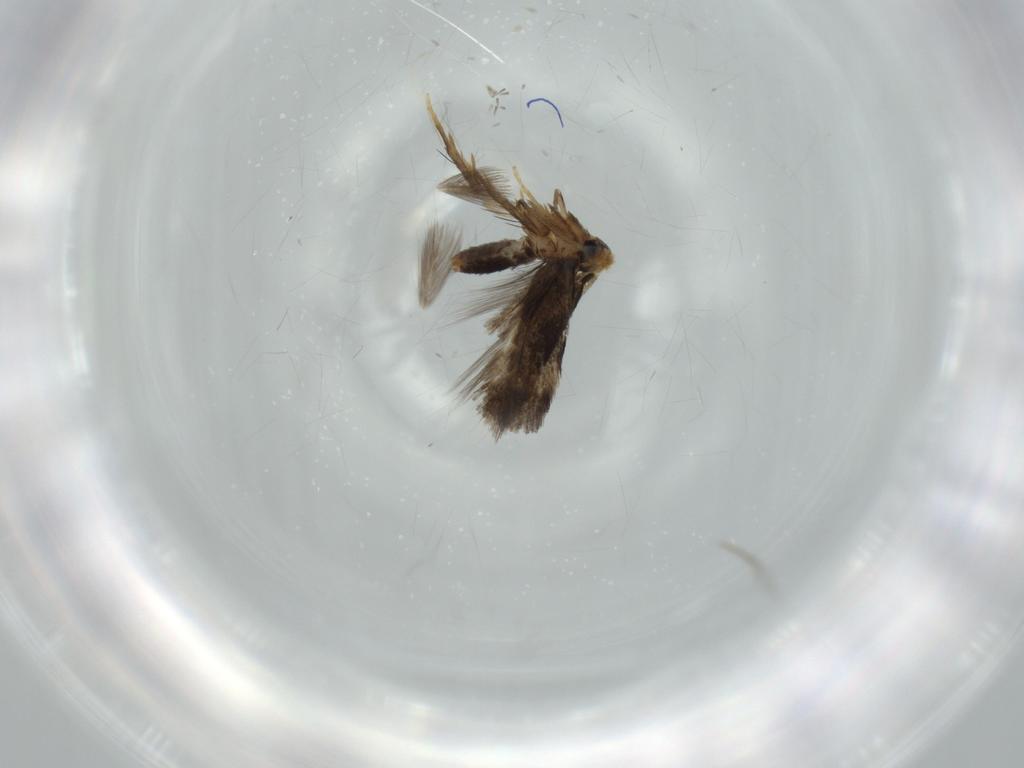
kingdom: Animalia
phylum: Arthropoda
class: Insecta
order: Lepidoptera
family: Nepticulidae
